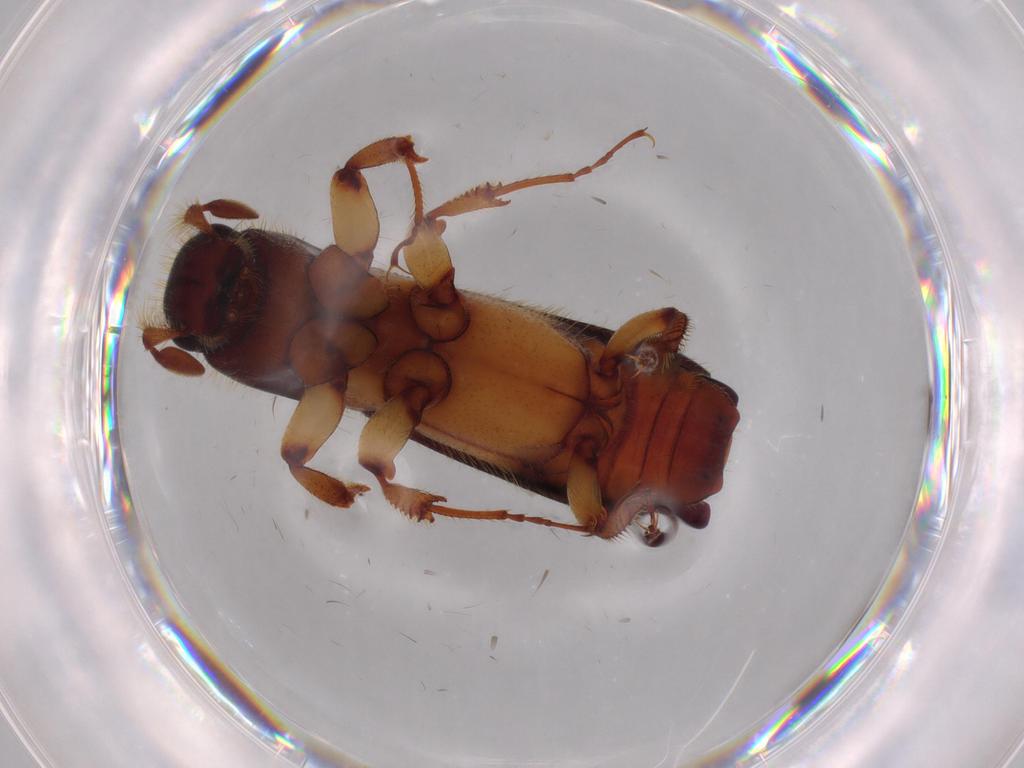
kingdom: Animalia
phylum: Arthropoda
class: Insecta
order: Coleoptera
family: Curculionidae
